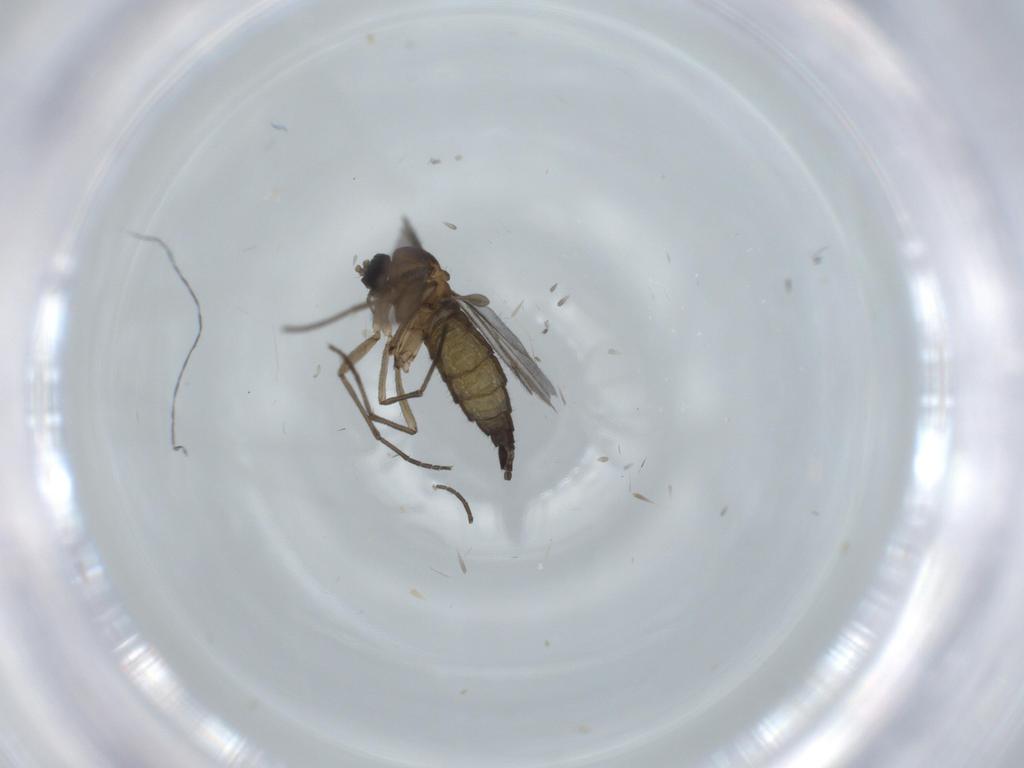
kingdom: Animalia
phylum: Arthropoda
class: Insecta
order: Diptera
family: Sciaridae
